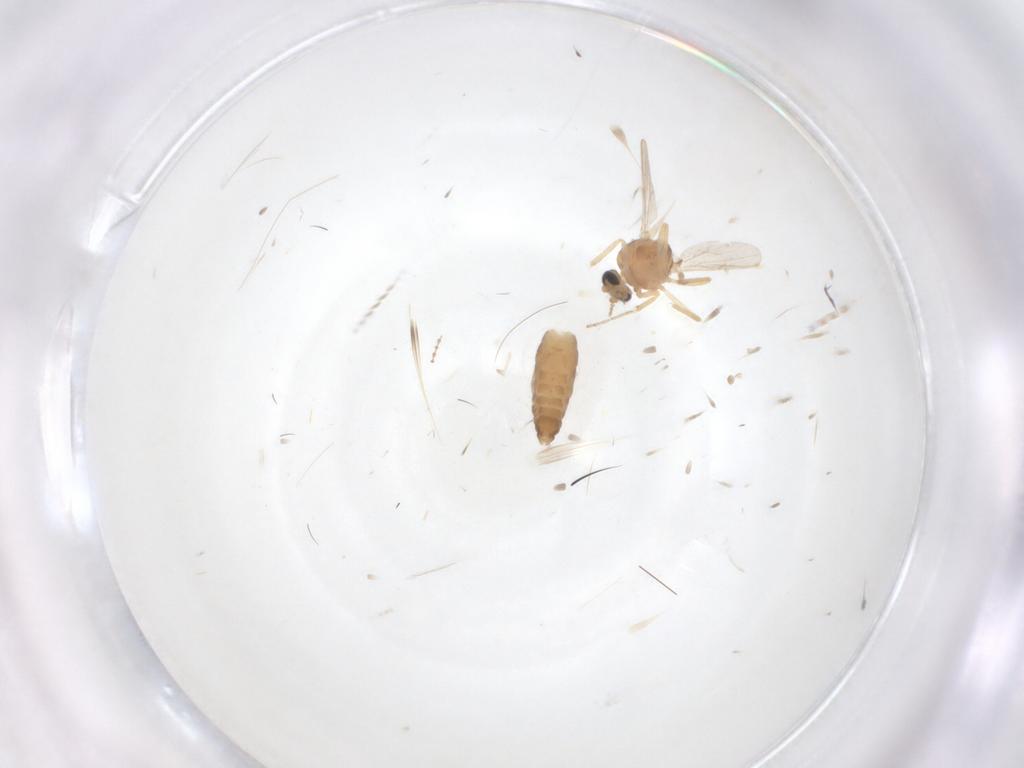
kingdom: Animalia
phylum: Arthropoda
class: Insecta
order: Diptera
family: Ceratopogonidae
